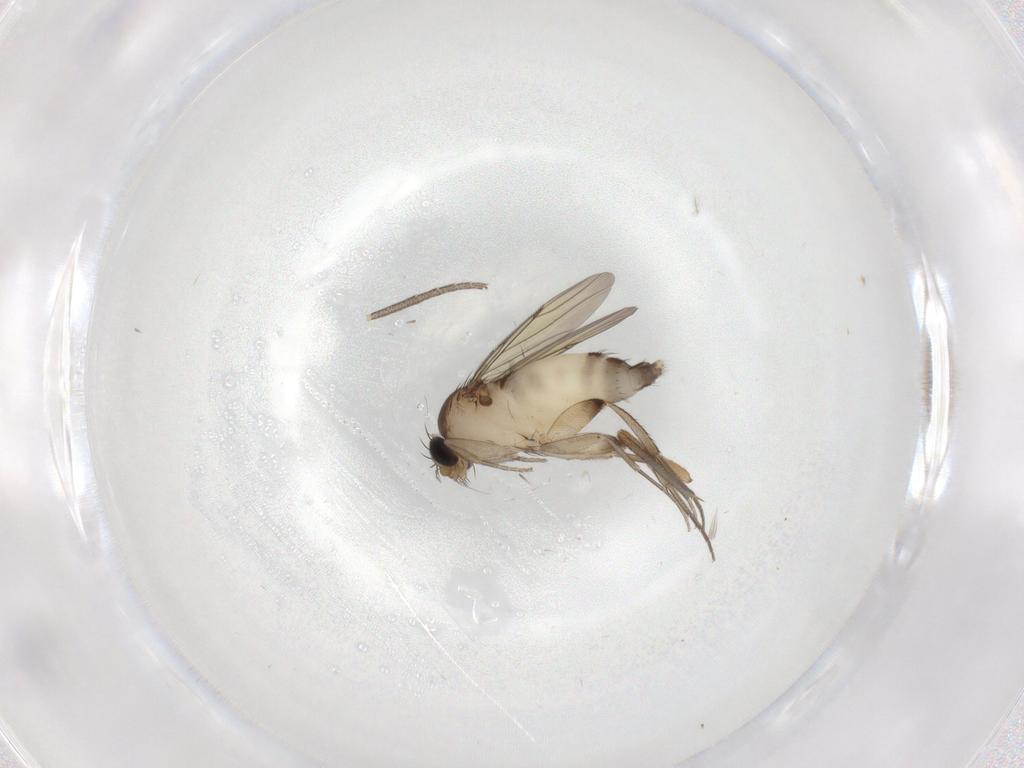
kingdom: Animalia
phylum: Arthropoda
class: Insecta
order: Diptera
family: Phoridae
